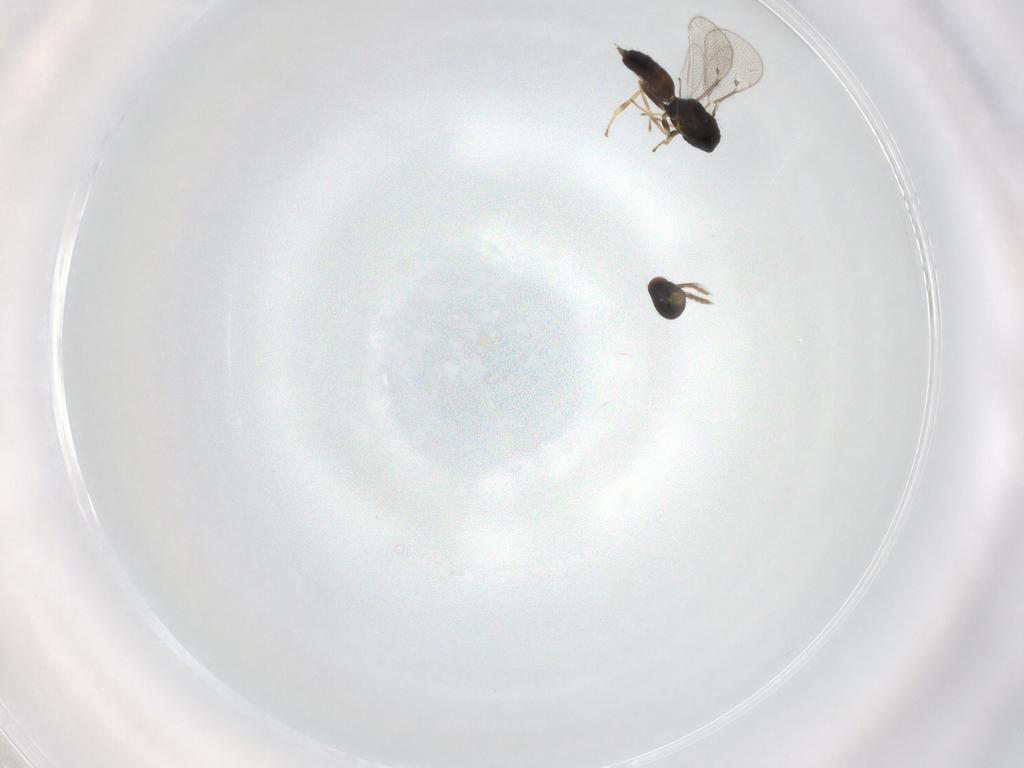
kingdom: Animalia
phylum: Arthropoda
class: Insecta
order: Hymenoptera
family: Eulophidae
